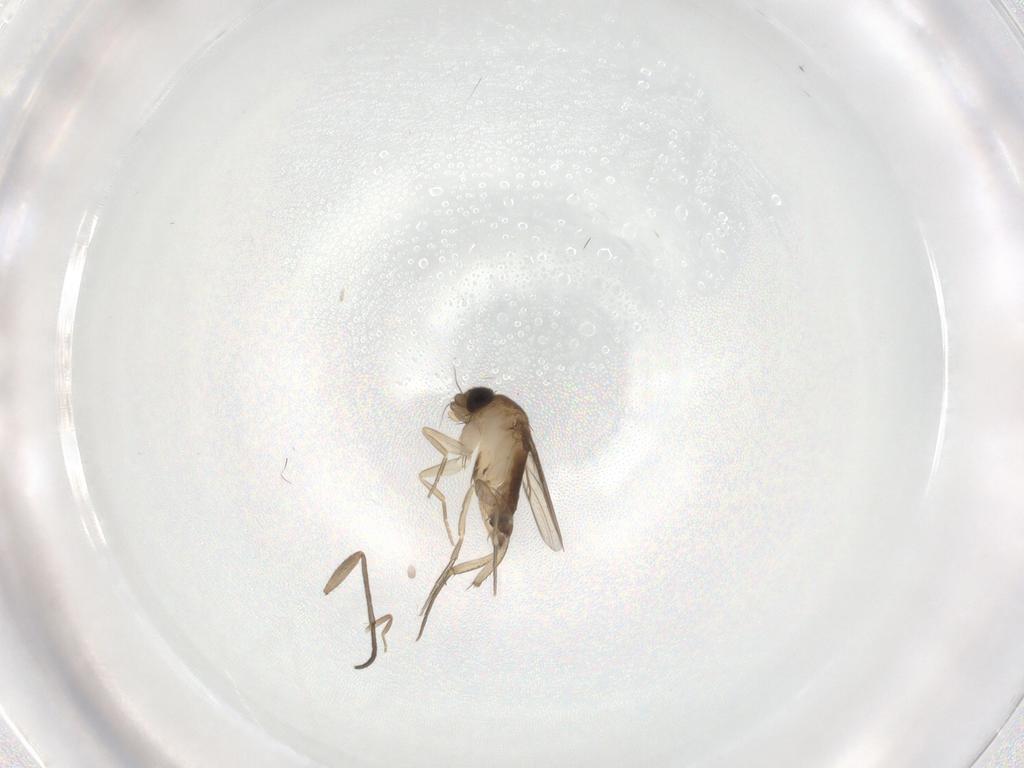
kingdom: Animalia
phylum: Arthropoda
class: Insecta
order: Diptera
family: Phoridae
